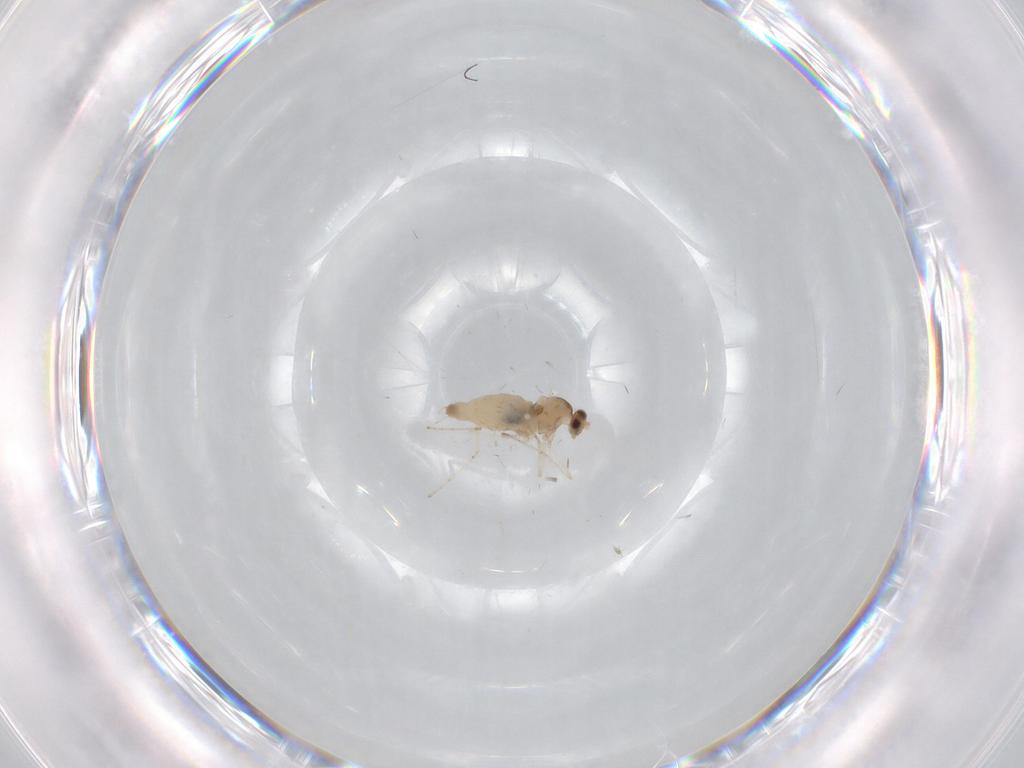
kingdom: Animalia
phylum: Arthropoda
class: Insecta
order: Diptera
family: Cecidomyiidae
